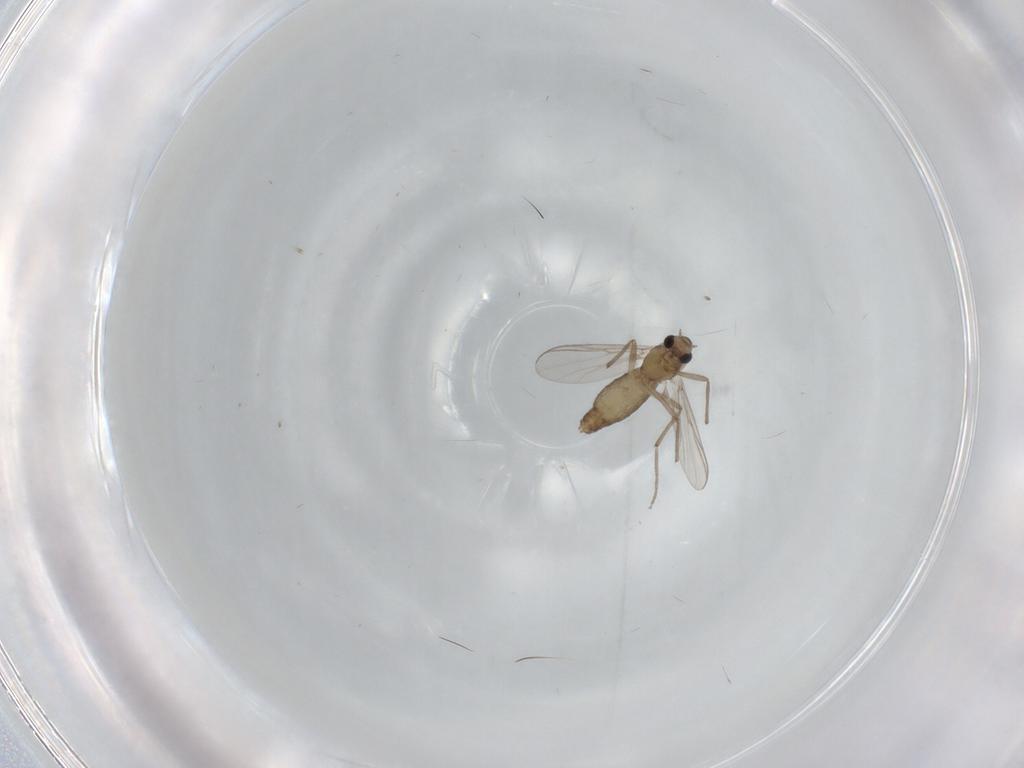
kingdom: Animalia
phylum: Arthropoda
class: Insecta
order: Diptera
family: Chironomidae
